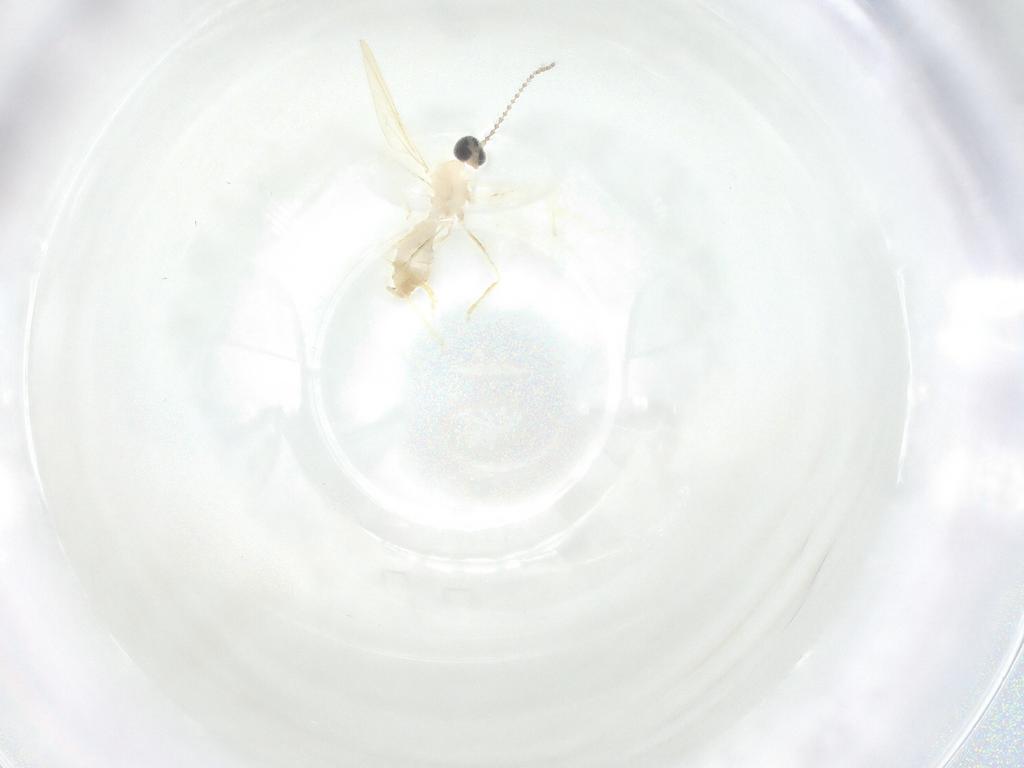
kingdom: Animalia
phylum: Arthropoda
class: Insecta
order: Diptera
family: Cecidomyiidae
